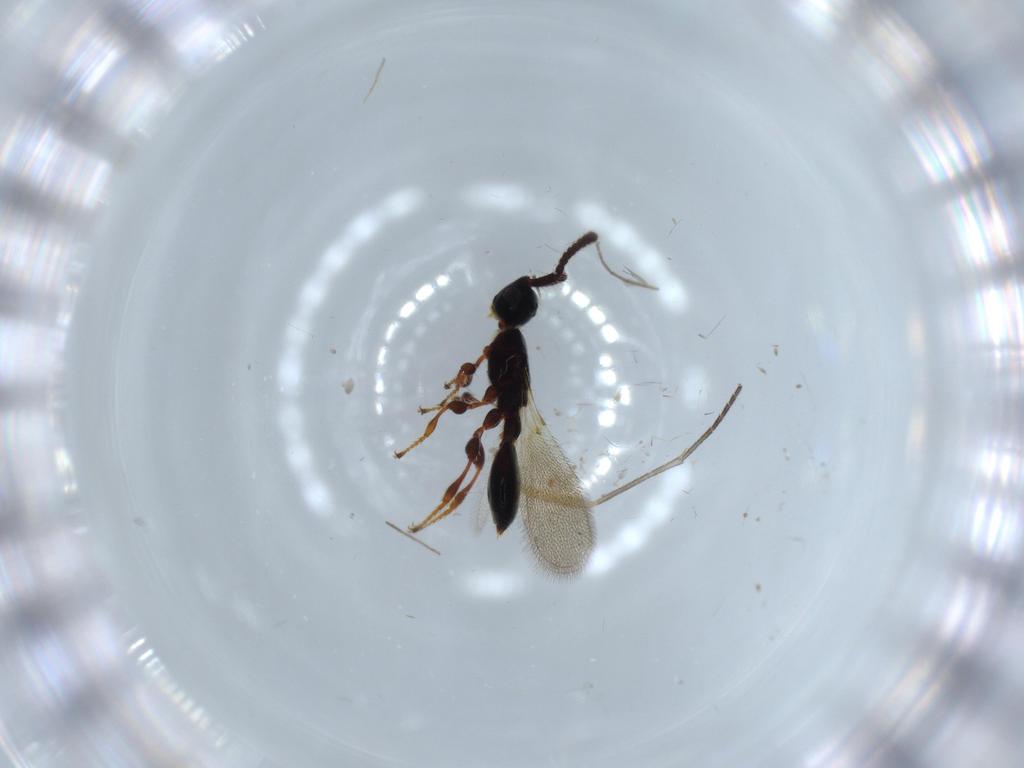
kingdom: Animalia
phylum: Arthropoda
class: Insecta
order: Hymenoptera
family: Diapriidae
